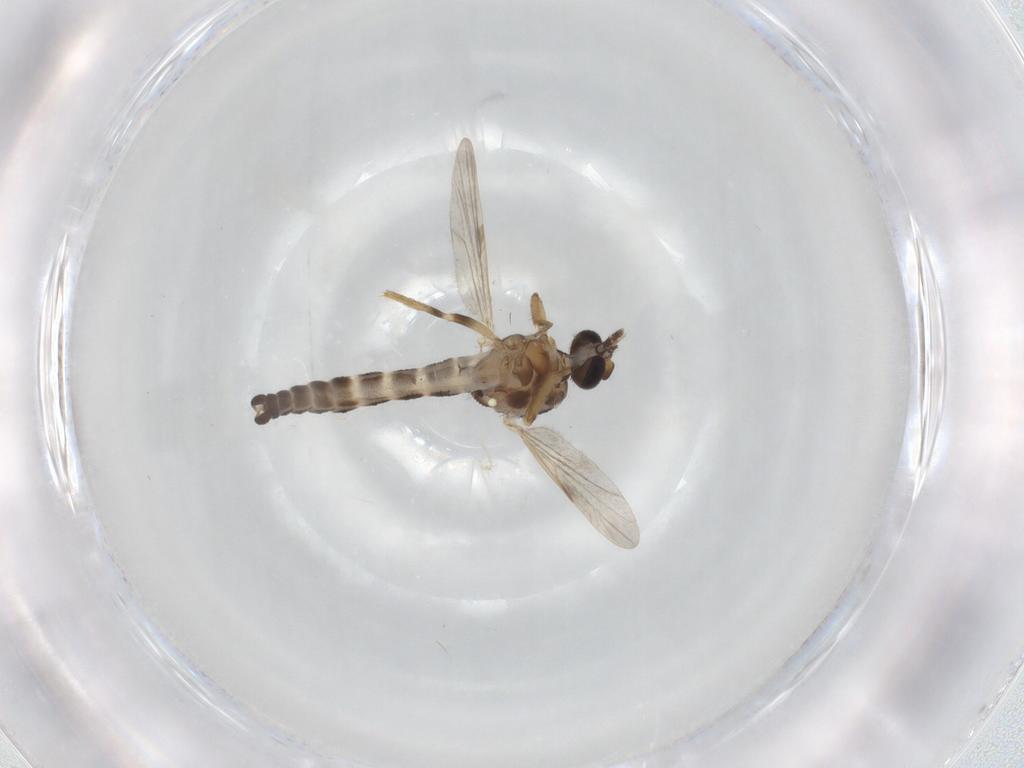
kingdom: Animalia
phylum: Arthropoda
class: Insecta
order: Diptera
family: Ceratopogonidae
